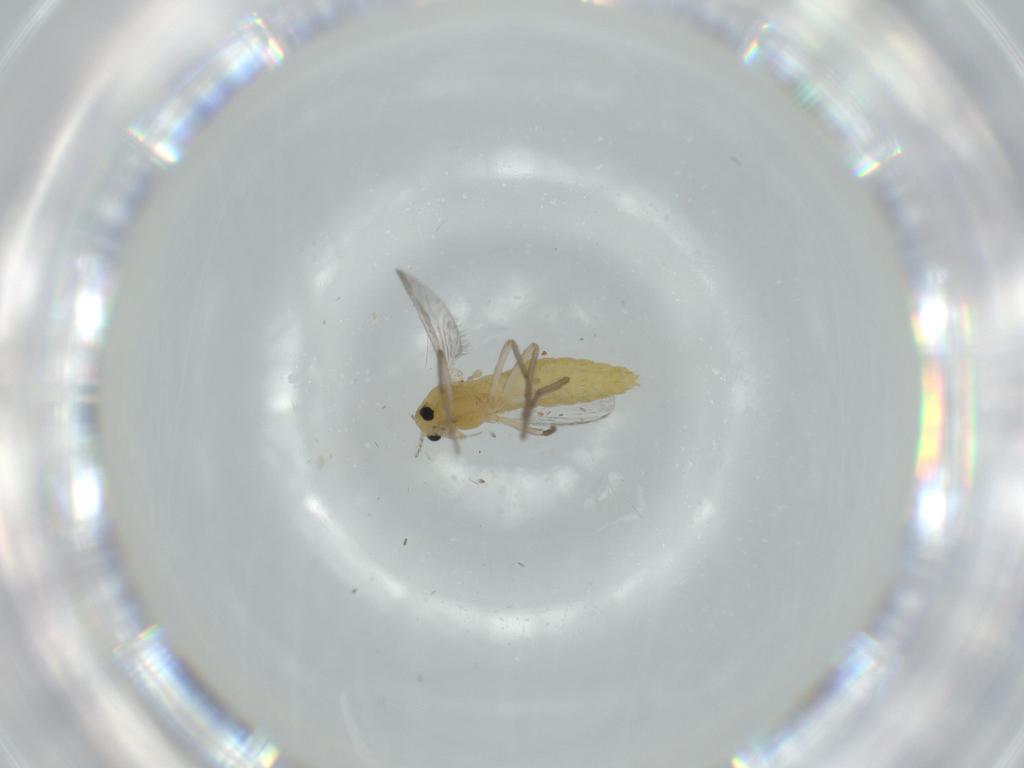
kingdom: Animalia
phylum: Arthropoda
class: Insecta
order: Diptera
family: Chironomidae
